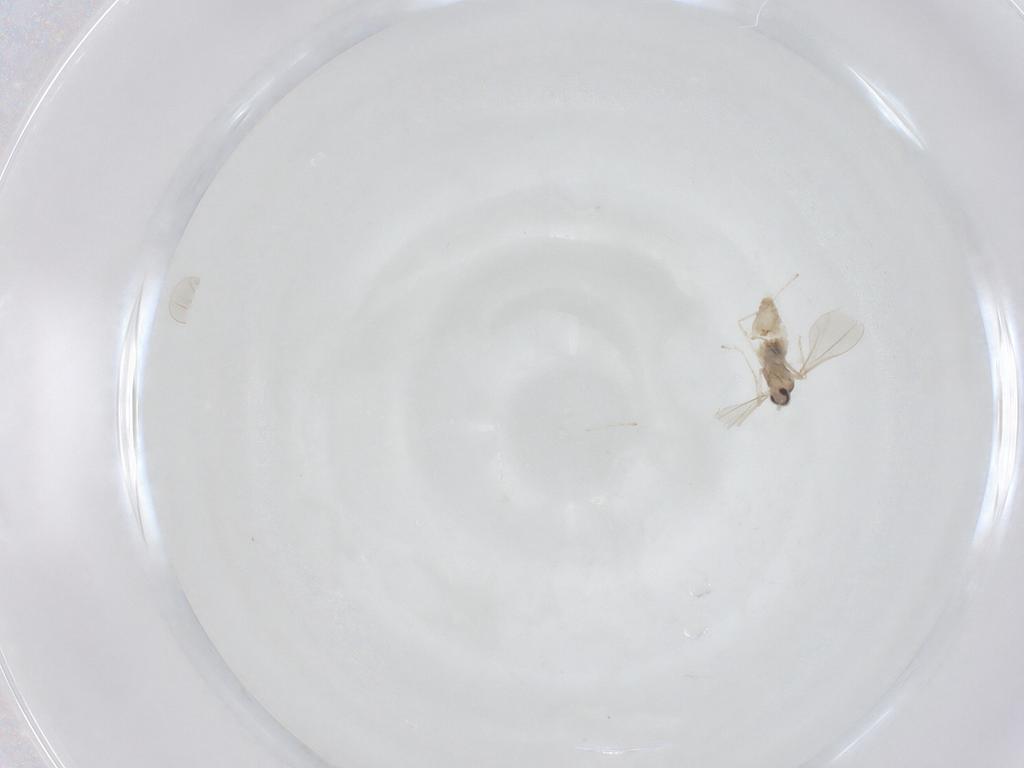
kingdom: Animalia
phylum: Arthropoda
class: Insecta
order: Diptera
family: Cecidomyiidae
